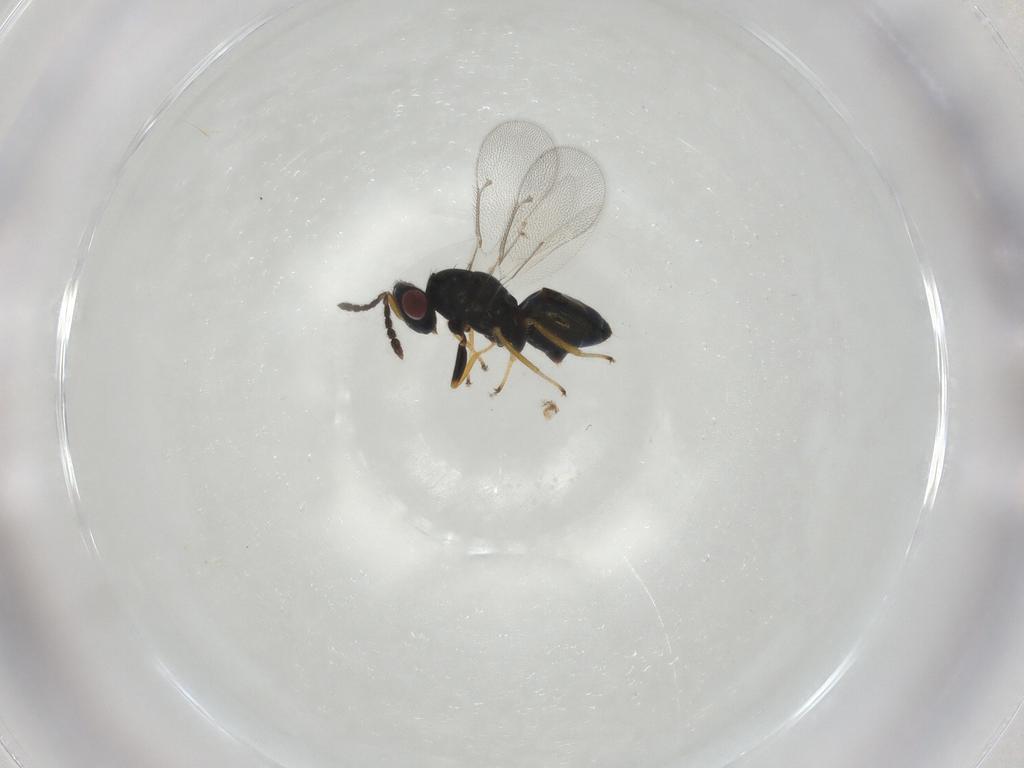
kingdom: Animalia
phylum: Arthropoda
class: Insecta
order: Hymenoptera
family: Eulophidae
